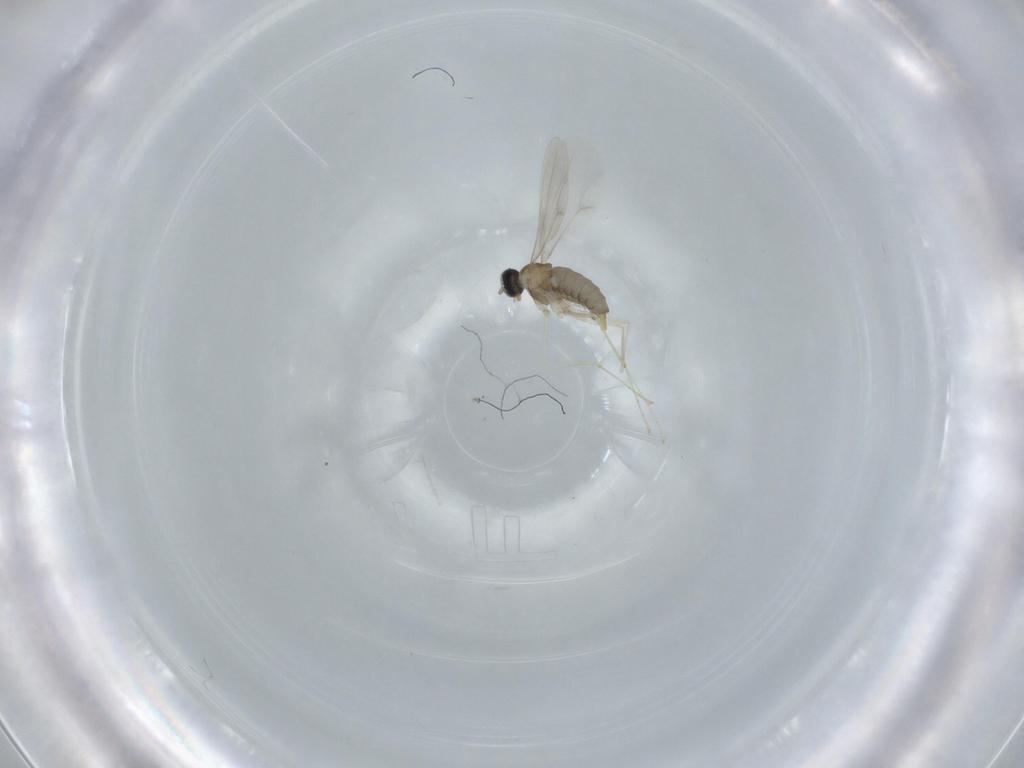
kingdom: Animalia
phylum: Arthropoda
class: Insecta
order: Diptera
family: Cecidomyiidae
